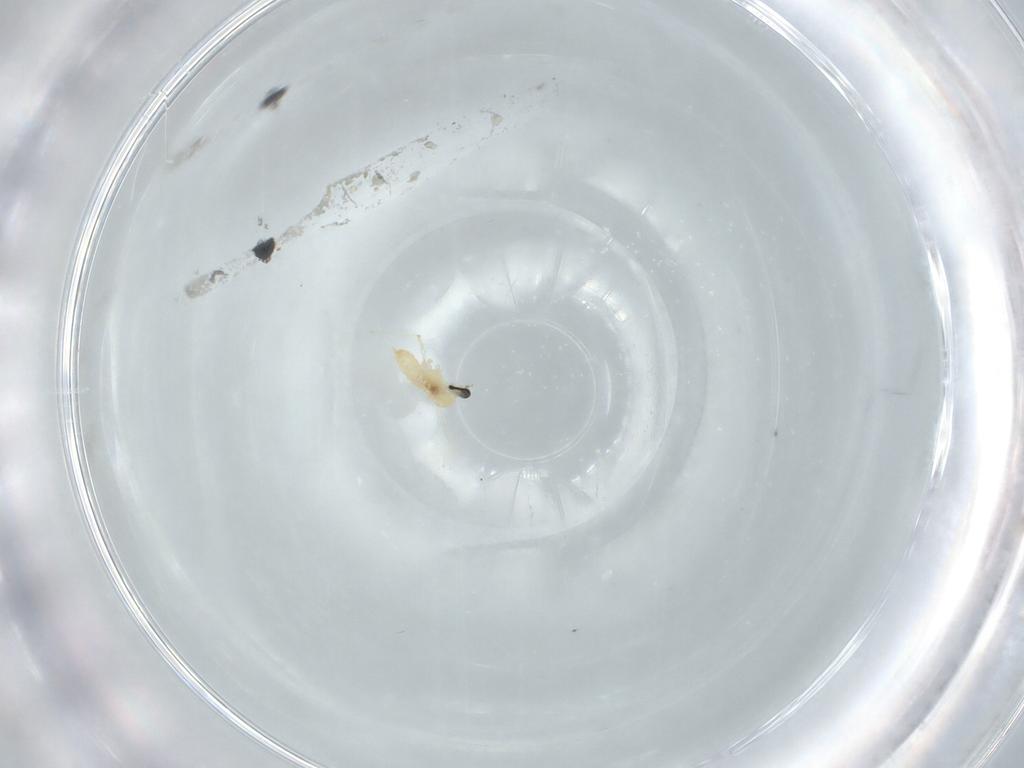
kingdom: Animalia
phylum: Arthropoda
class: Insecta
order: Diptera
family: Cecidomyiidae
